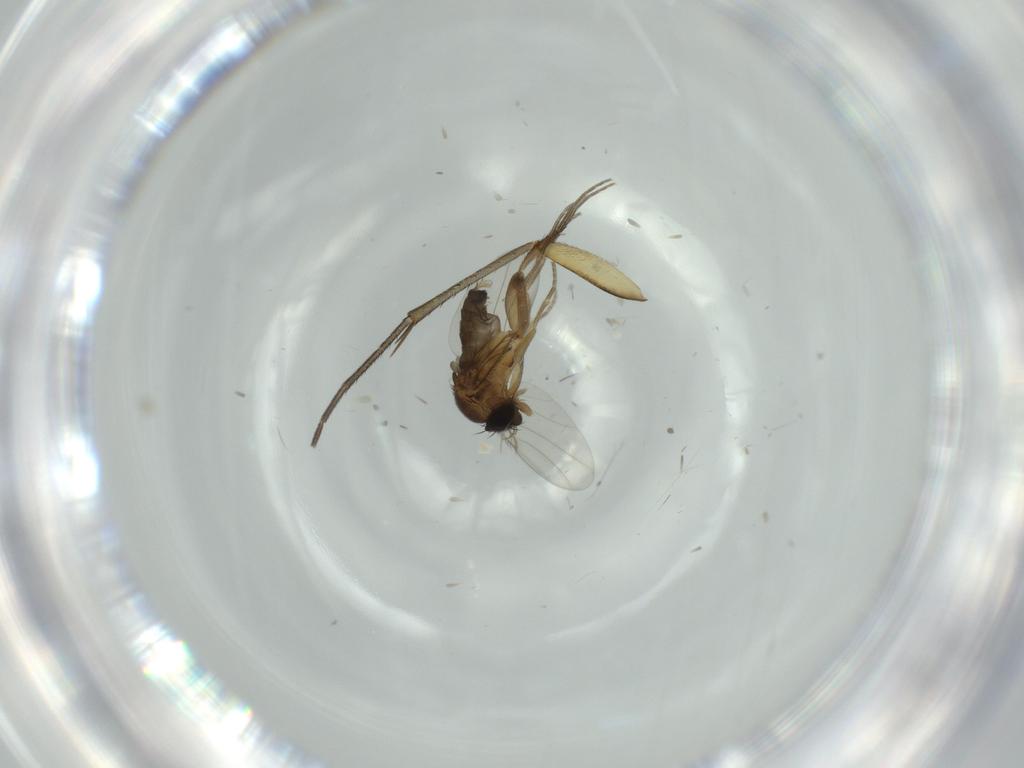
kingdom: Animalia
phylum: Arthropoda
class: Insecta
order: Diptera
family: Phoridae
